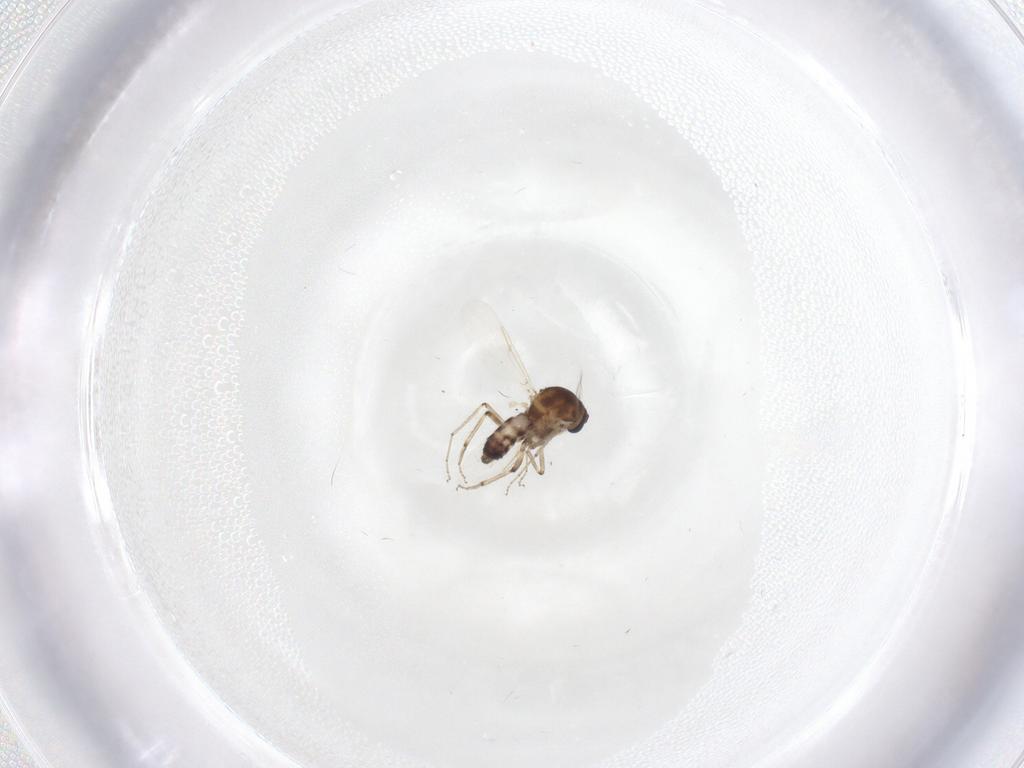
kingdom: Animalia
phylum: Arthropoda
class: Insecta
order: Diptera
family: Ceratopogonidae
